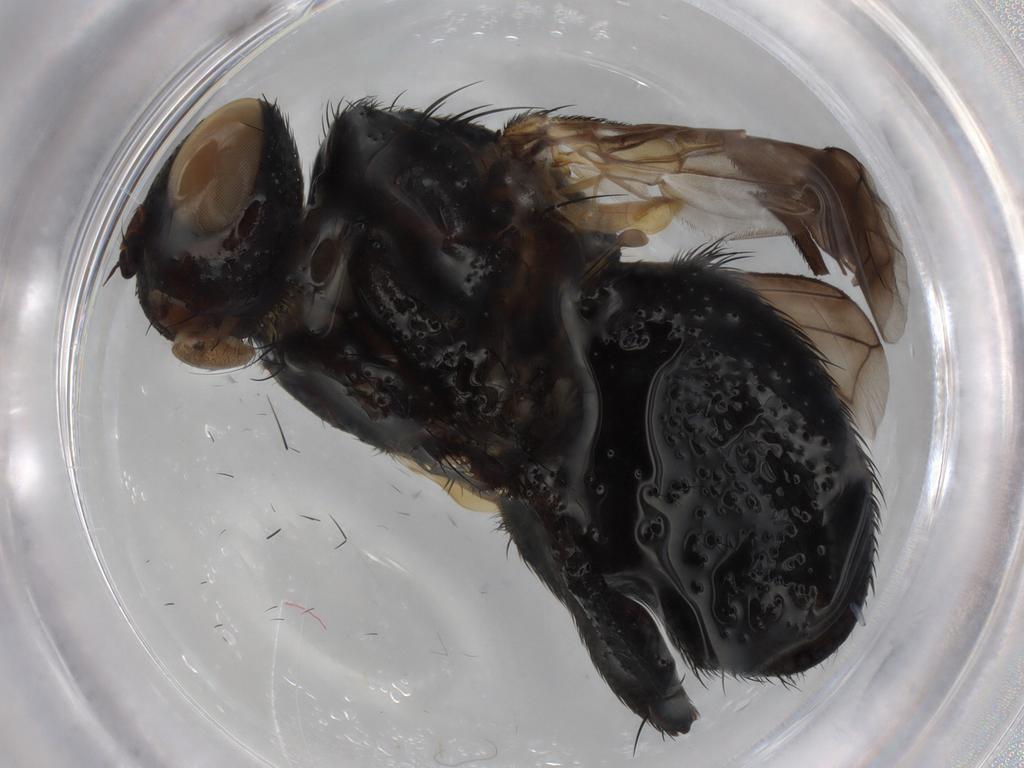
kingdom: Animalia
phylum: Arthropoda
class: Insecta
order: Diptera
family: Tachinidae
